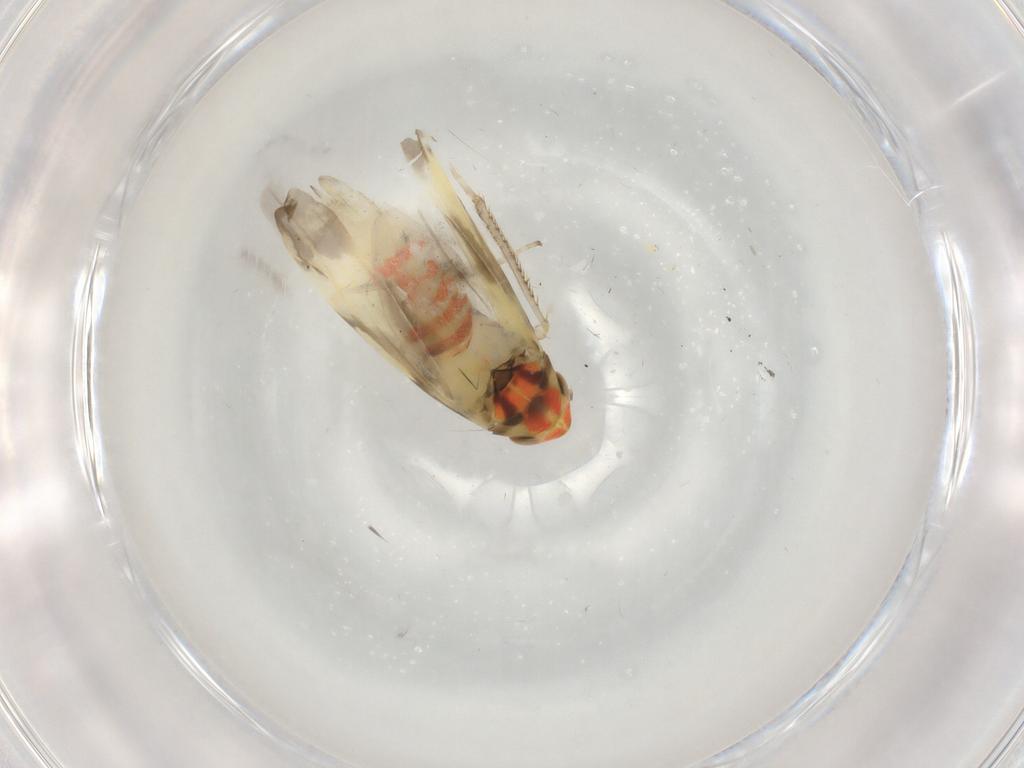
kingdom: Animalia
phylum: Arthropoda
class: Insecta
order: Hemiptera
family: Cicadellidae
